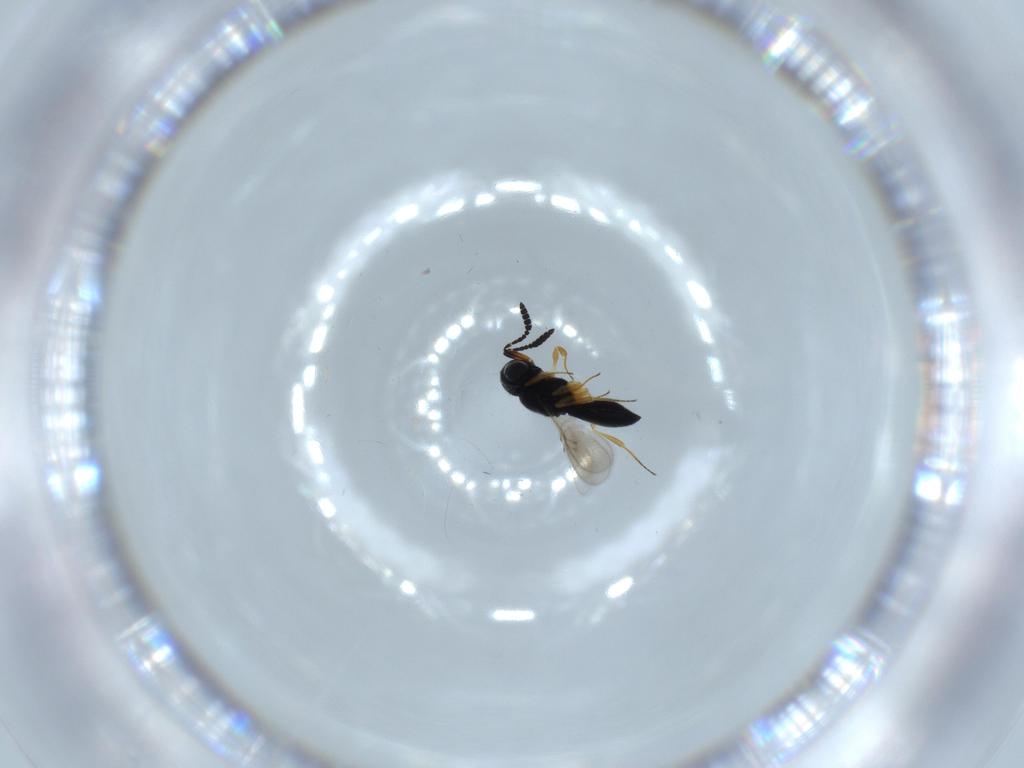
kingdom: Animalia
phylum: Arthropoda
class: Insecta
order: Hymenoptera
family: Scelionidae
